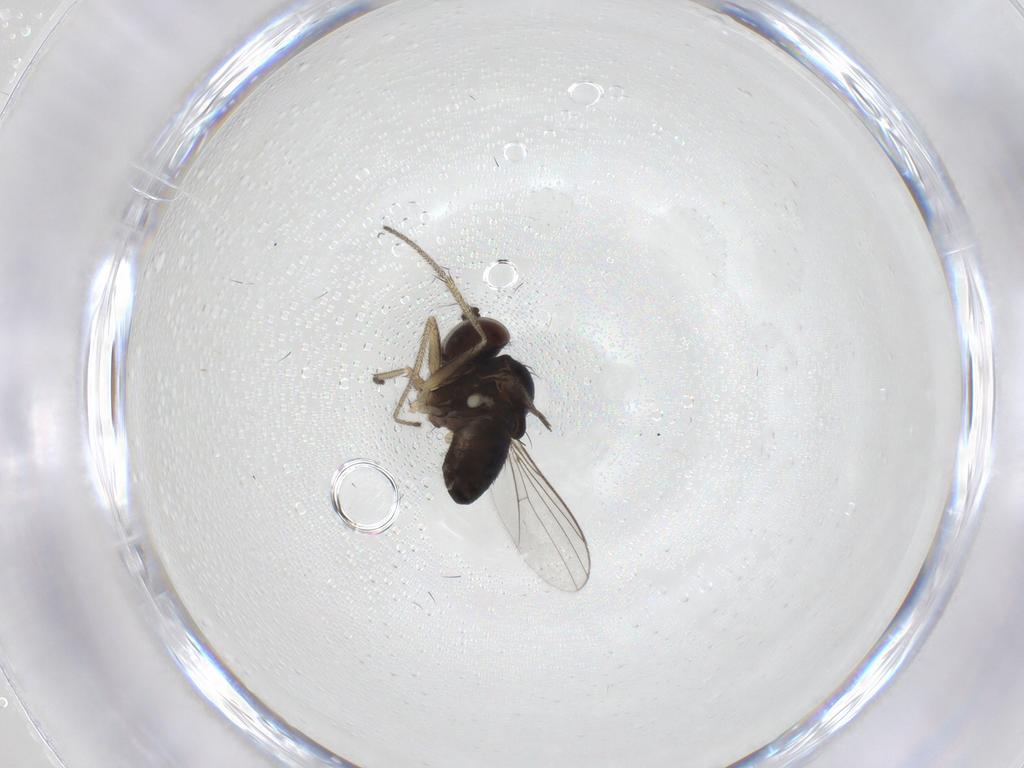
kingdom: Animalia
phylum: Arthropoda
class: Insecta
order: Diptera
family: Dolichopodidae
